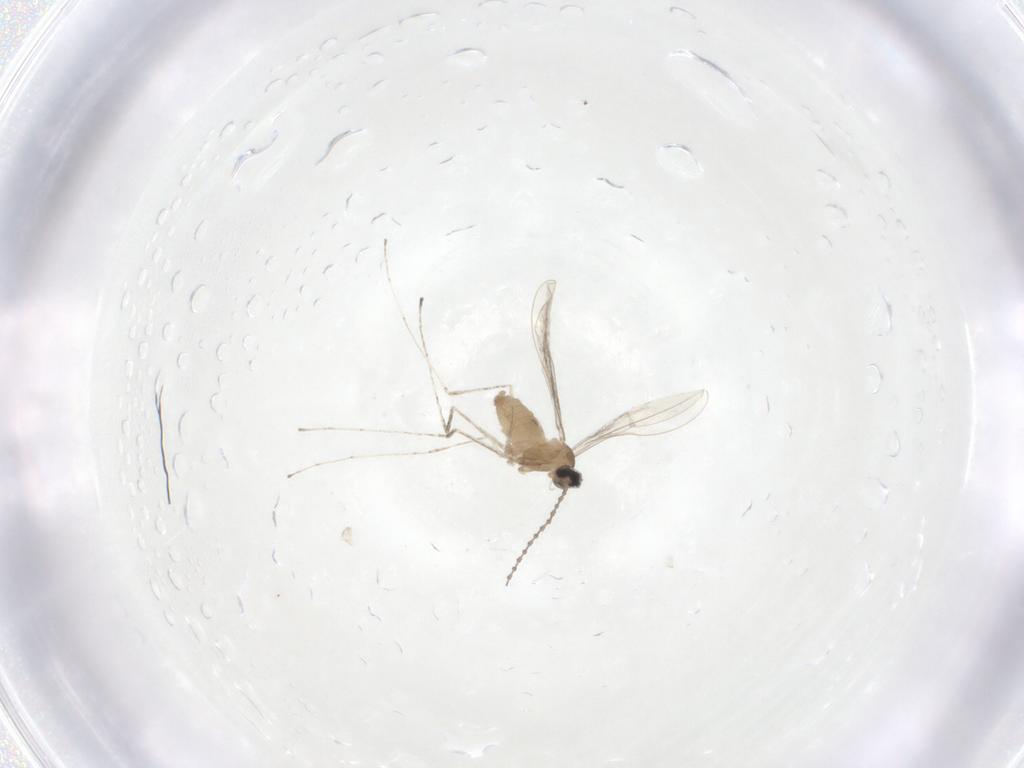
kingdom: Animalia
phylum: Arthropoda
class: Insecta
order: Diptera
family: Cecidomyiidae
